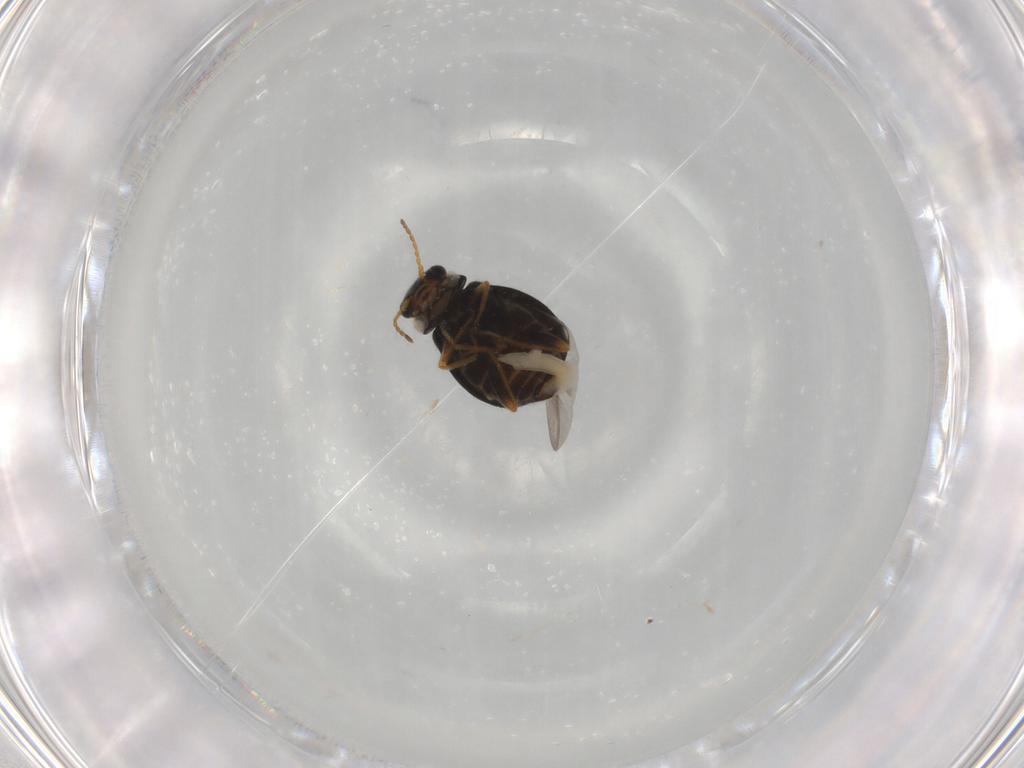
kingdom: Animalia
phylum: Arthropoda
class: Insecta
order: Coleoptera
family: Melyridae
